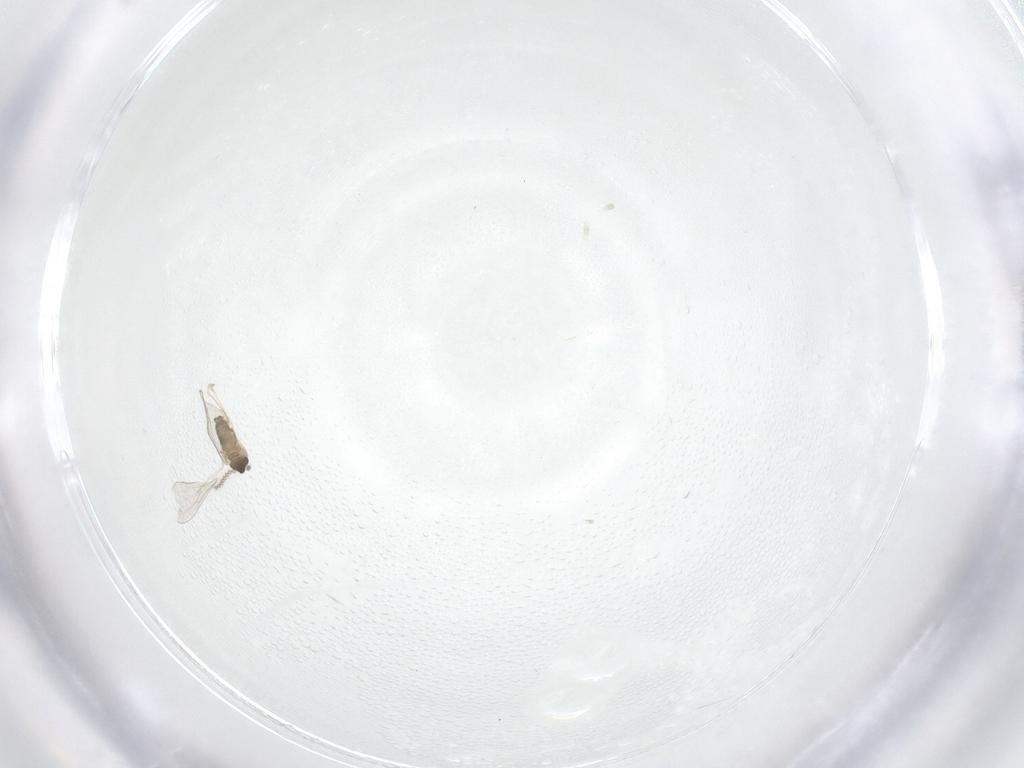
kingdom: Animalia
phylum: Arthropoda
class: Insecta
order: Diptera
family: Cecidomyiidae
